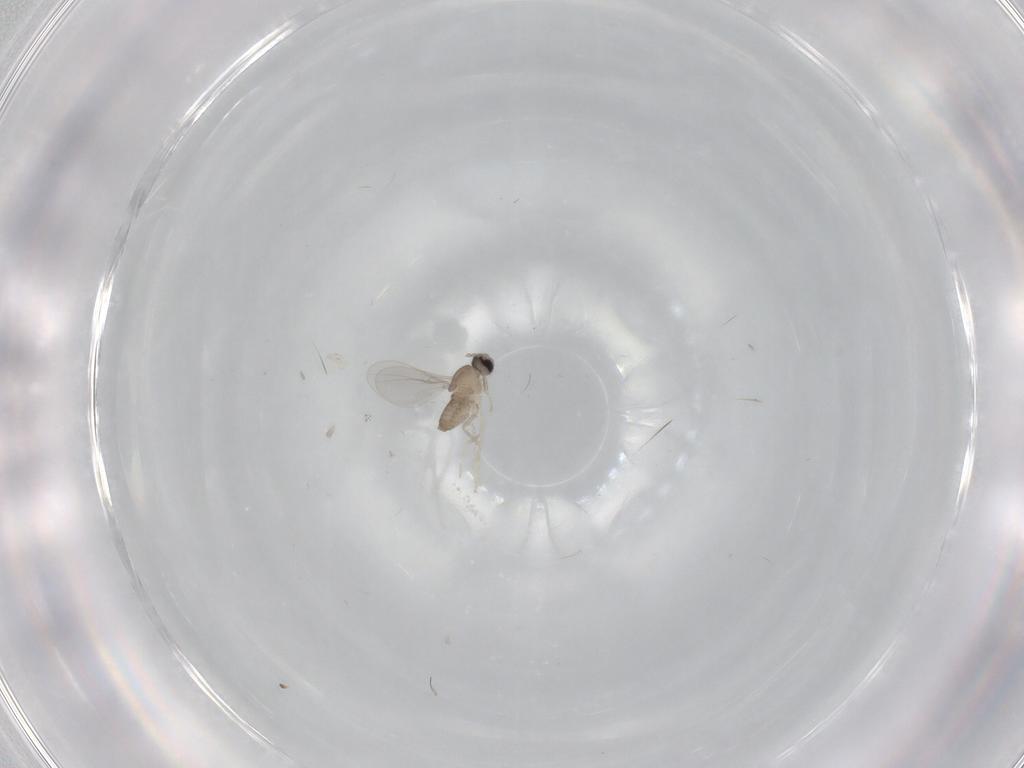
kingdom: Animalia
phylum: Arthropoda
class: Insecta
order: Diptera
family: Cecidomyiidae
